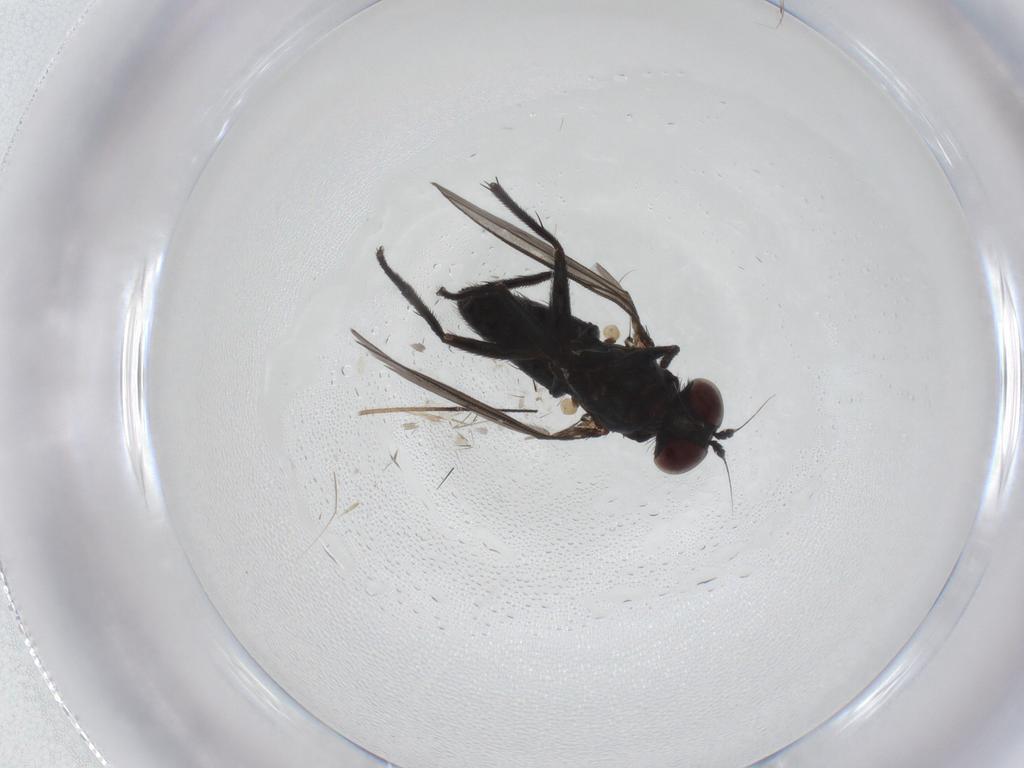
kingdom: Animalia
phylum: Arthropoda
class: Insecta
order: Diptera
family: Dolichopodidae
